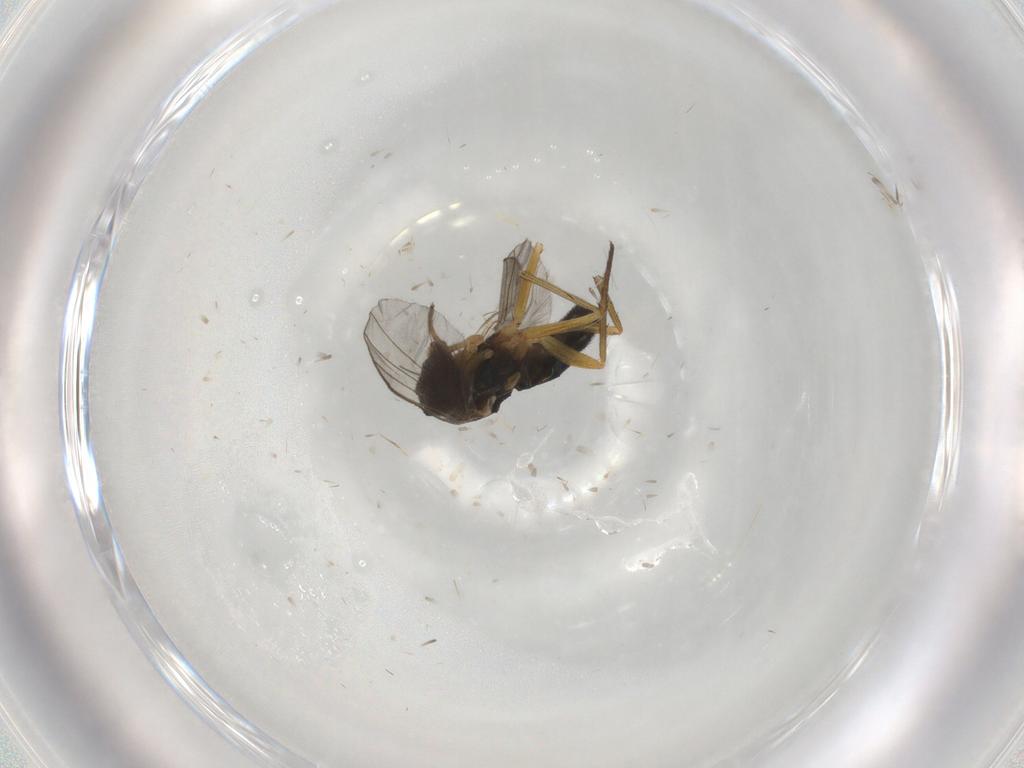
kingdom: Animalia
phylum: Arthropoda
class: Insecta
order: Diptera
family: Dolichopodidae
